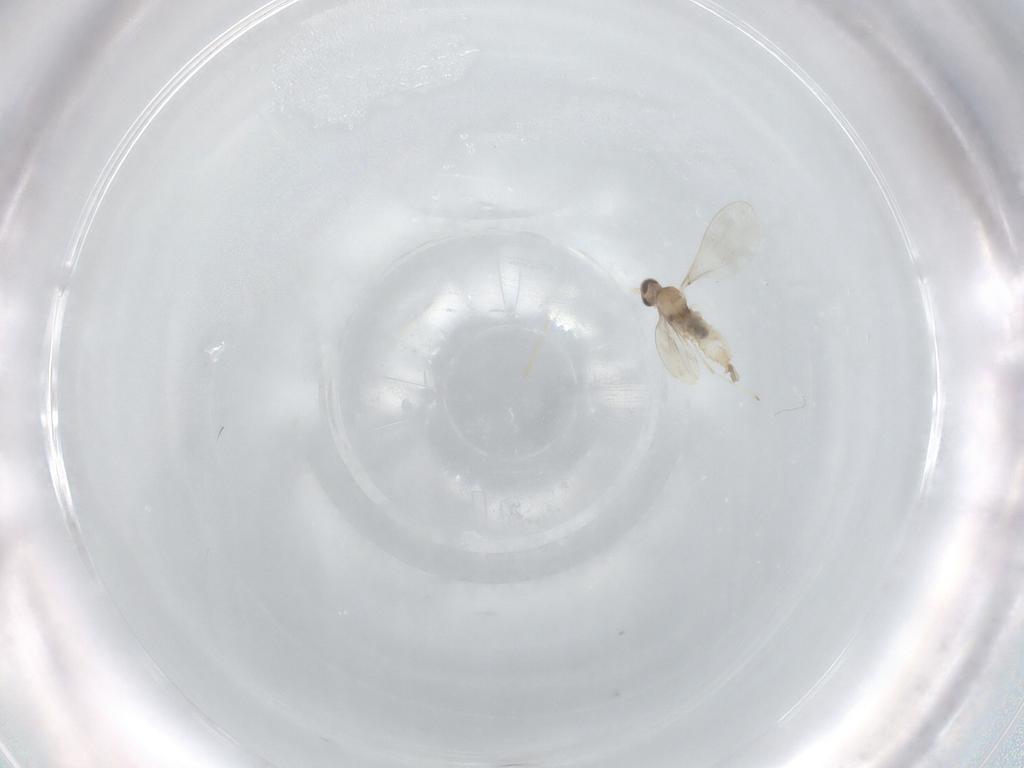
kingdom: Animalia
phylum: Arthropoda
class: Insecta
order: Diptera
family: Cecidomyiidae
